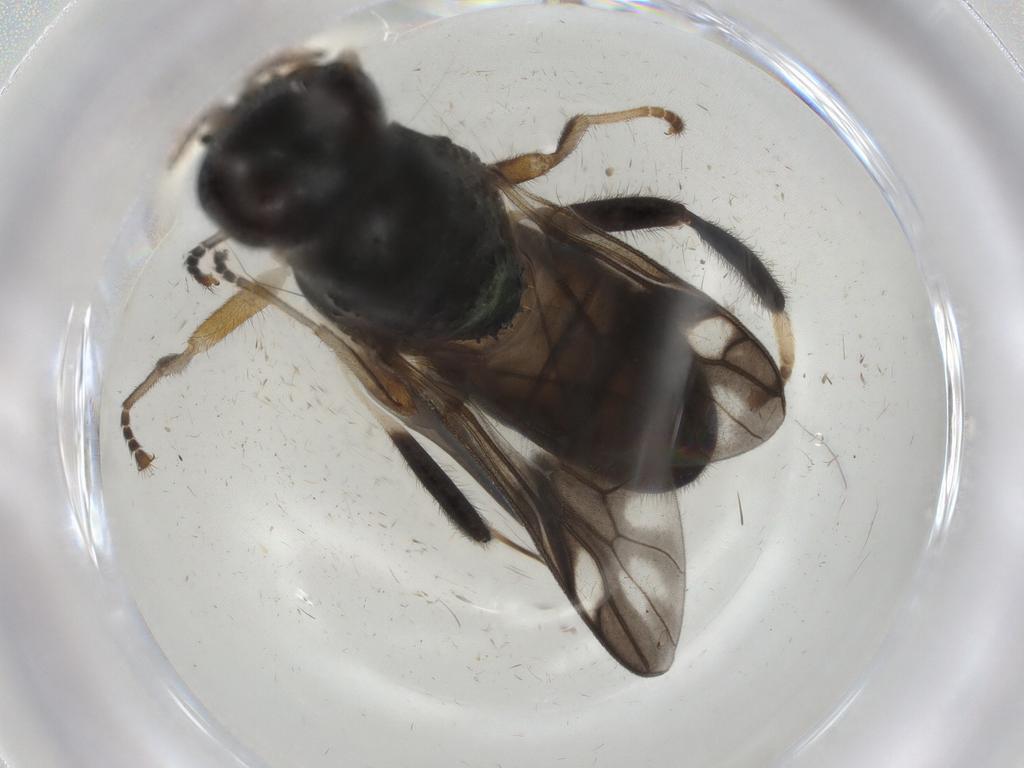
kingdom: Animalia
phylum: Arthropoda
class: Insecta
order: Diptera
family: Stratiomyidae
